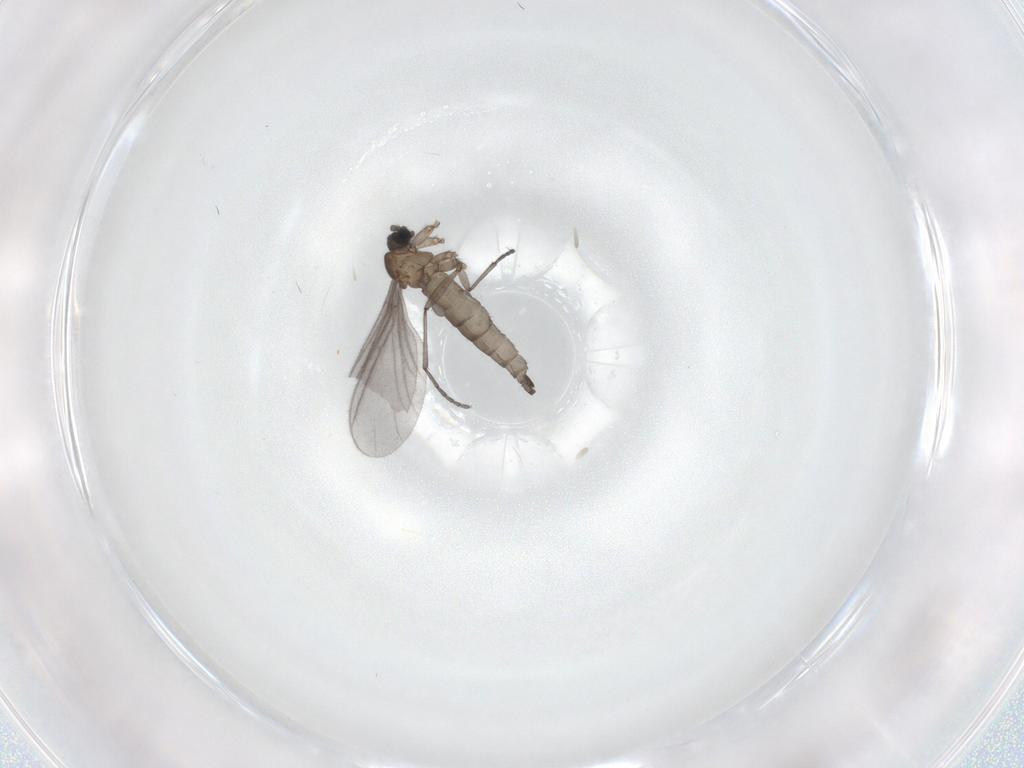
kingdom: Animalia
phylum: Arthropoda
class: Insecta
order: Diptera
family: Sciaridae
